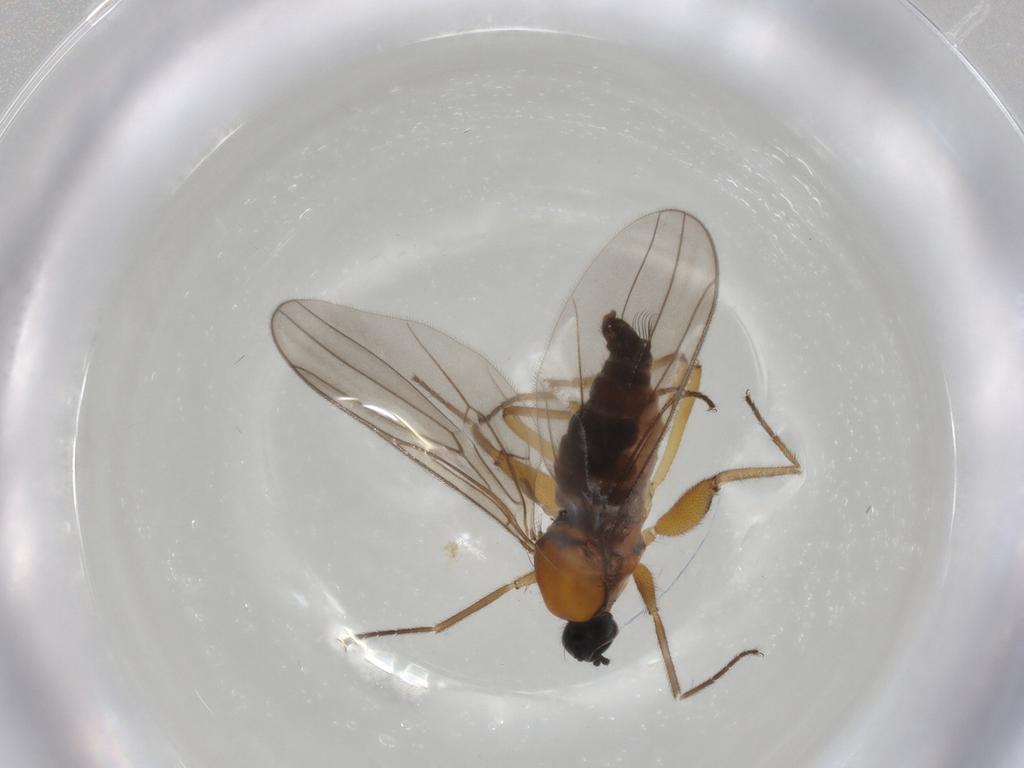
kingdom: Animalia
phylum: Arthropoda
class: Insecta
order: Diptera
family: Hybotidae
